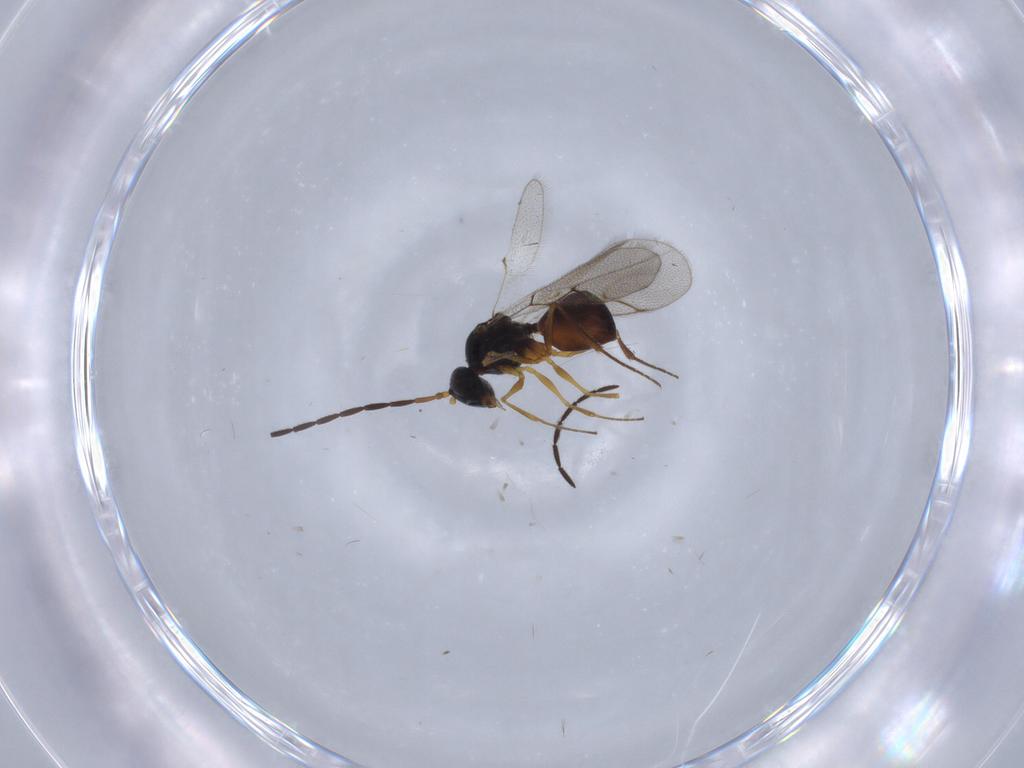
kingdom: Animalia
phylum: Arthropoda
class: Insecta
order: Hymenoptera
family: Figitidae
